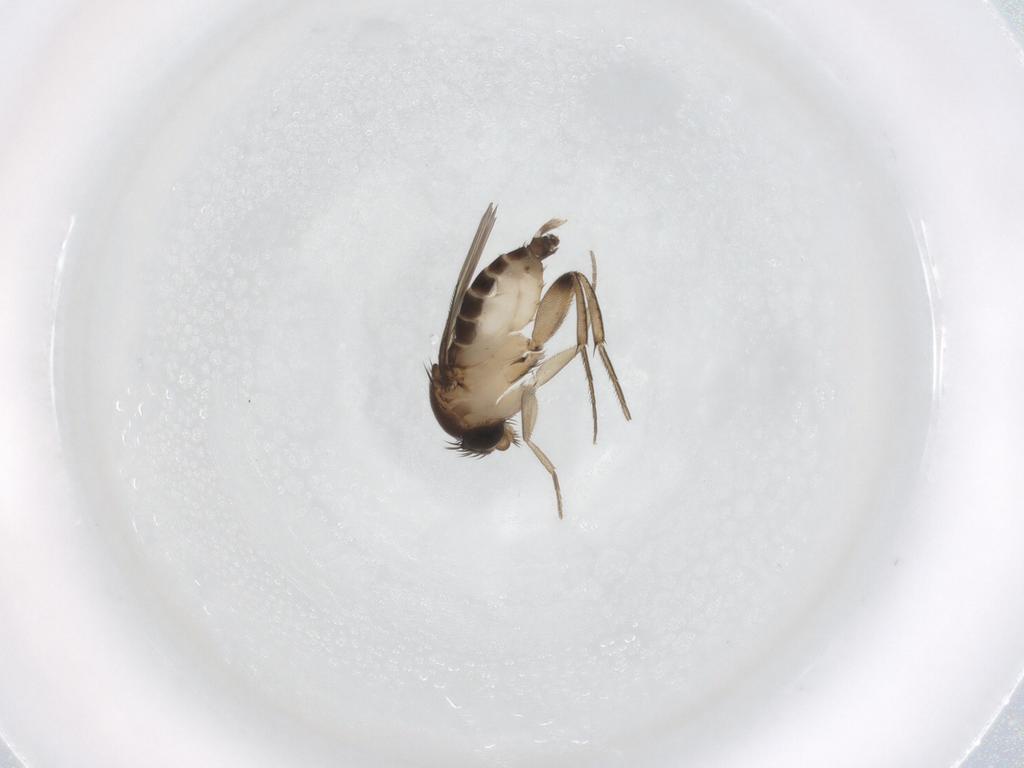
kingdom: Animalia
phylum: Arthropoda
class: Insecta
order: Diptera
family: Phoridae
